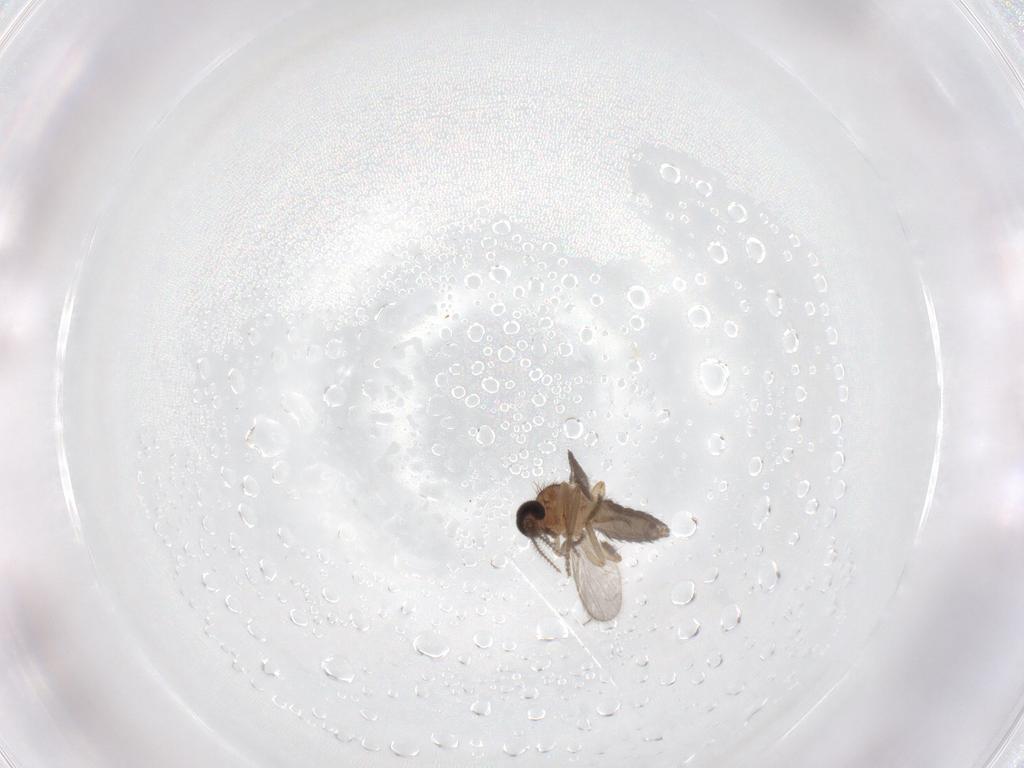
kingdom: Animalia
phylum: Arthropoda
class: Insecta
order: Diptera
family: Ceratopogonidae
